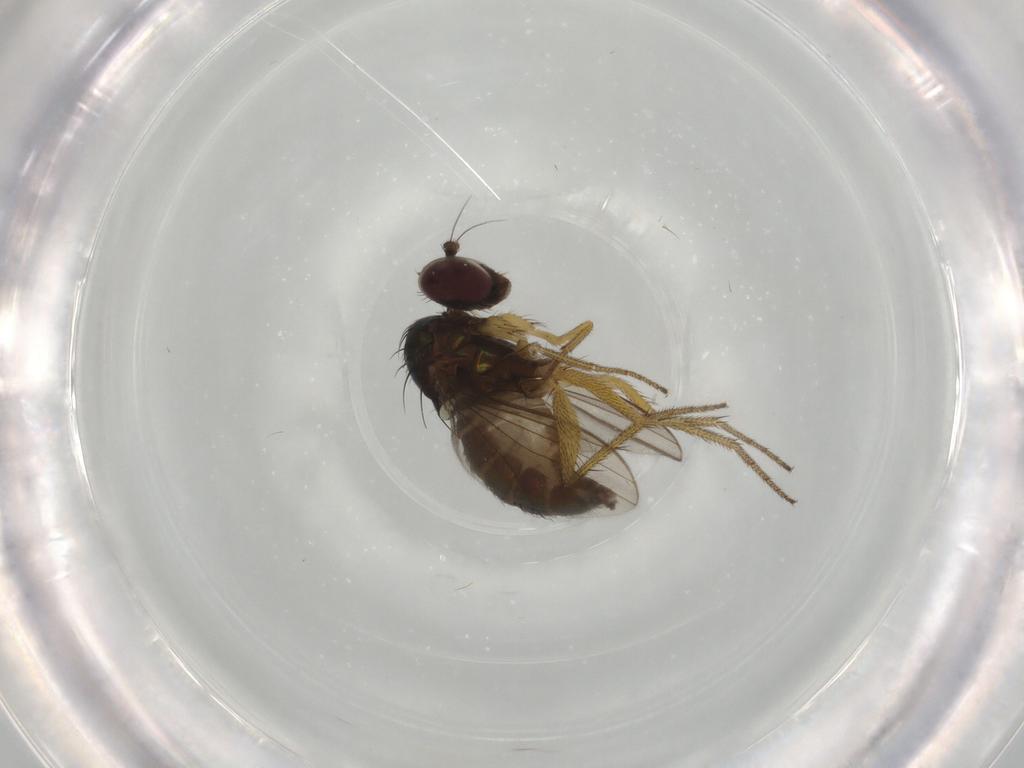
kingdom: Animalia
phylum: Arthropoda
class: Insecta
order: Diptera
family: Dolichopodidae
